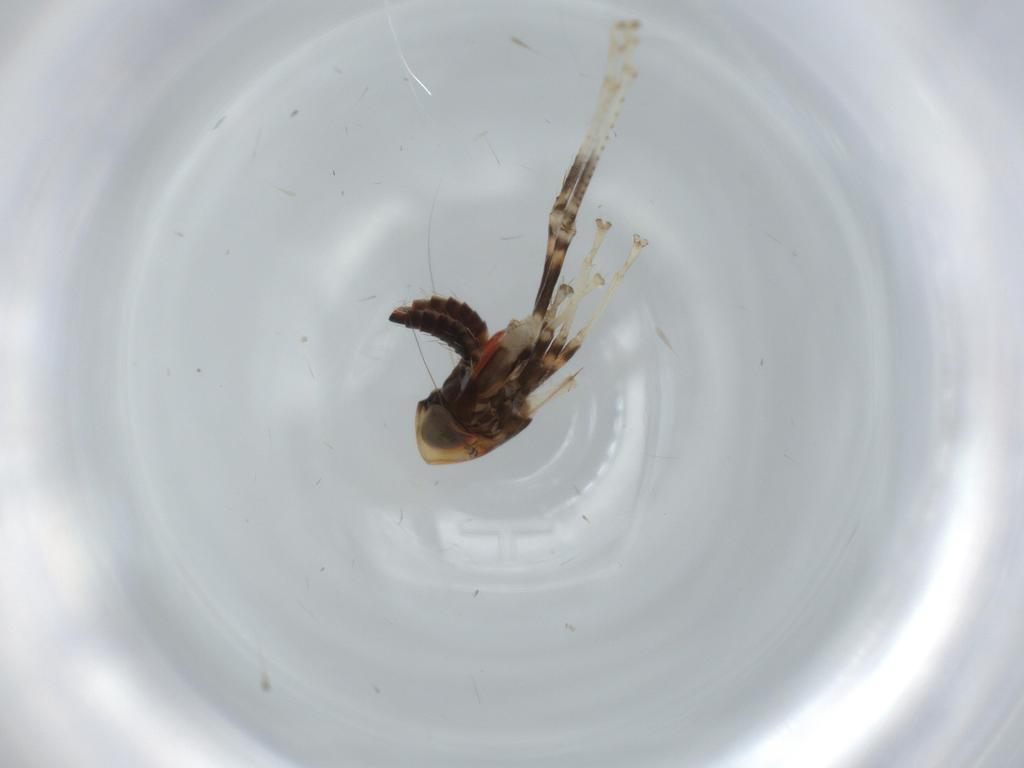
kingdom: Animalia
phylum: Arthropoda
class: Insecta
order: Hemiptera
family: Cicadellidae
